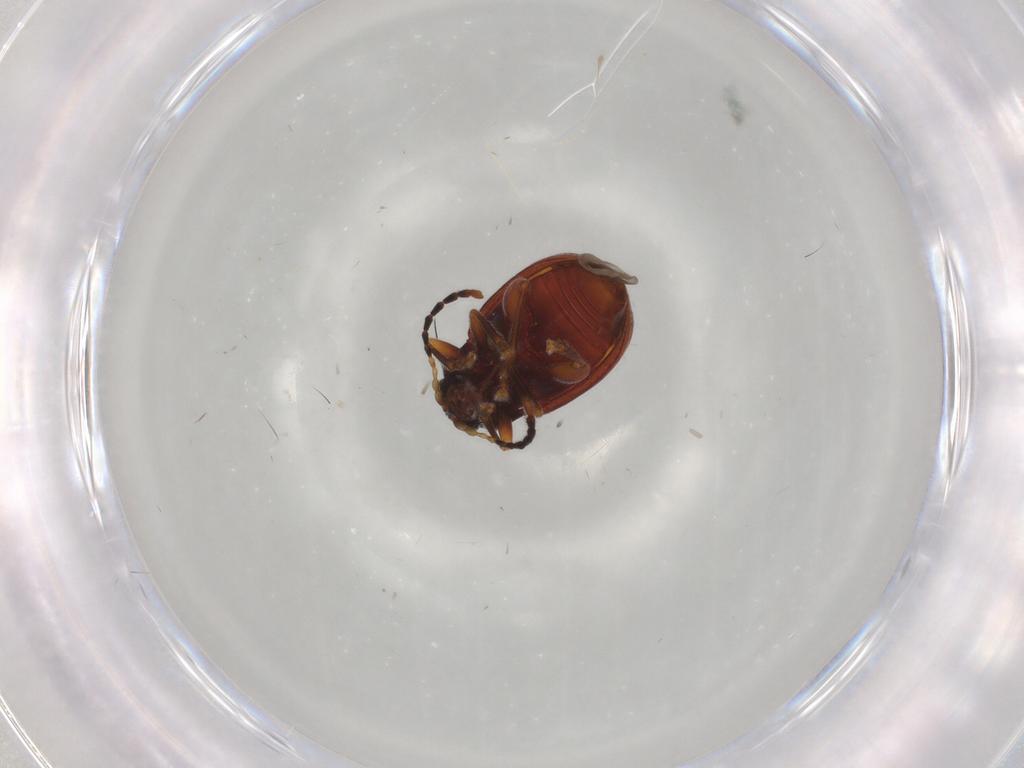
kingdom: Animalia
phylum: Arthropoda
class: Insecta
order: Coleoptera
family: Chrysomelidae
